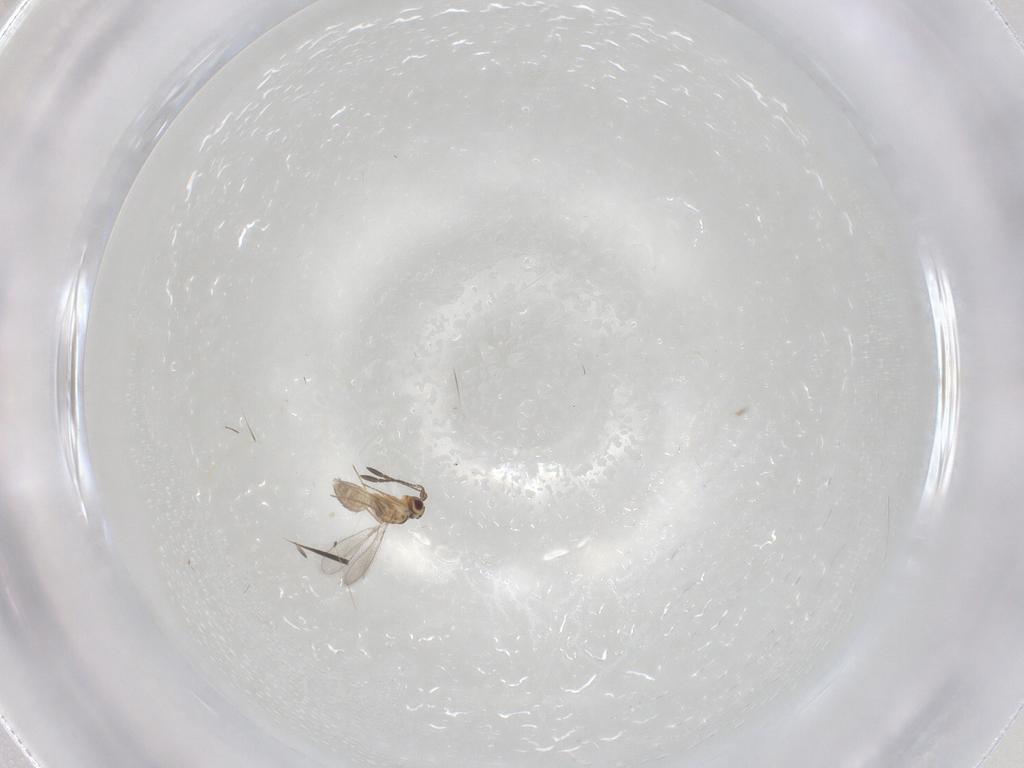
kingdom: Animalia
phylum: Arthropoda
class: Insecta
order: Hymenoptera
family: Mymaridae
